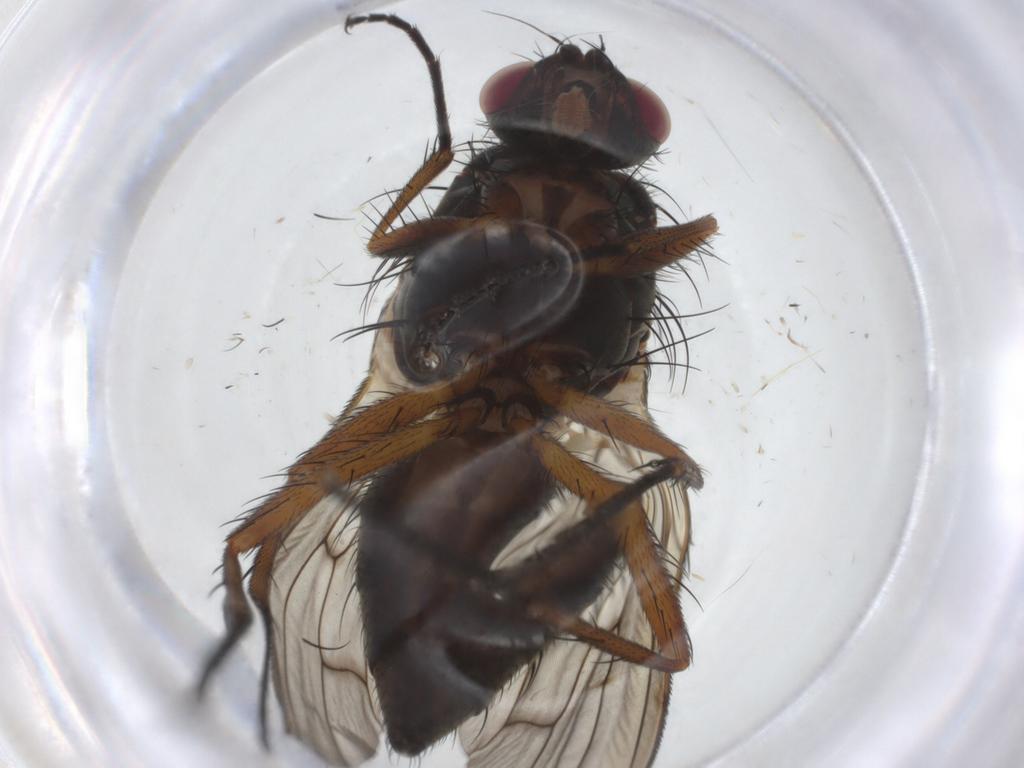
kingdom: Animalia
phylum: Arthropoda
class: Insecta
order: Diptera
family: Anthomyiidae
